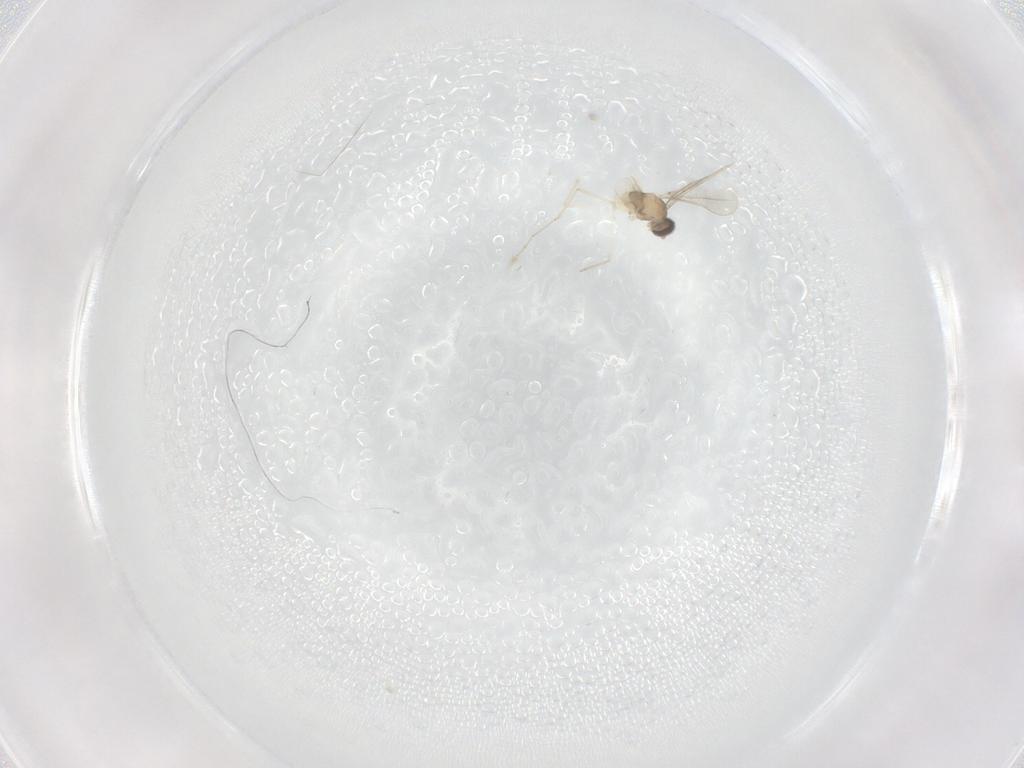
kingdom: Animalia
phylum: Arthropoda
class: Insecta
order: Diptera
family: Cecidomyiidae
